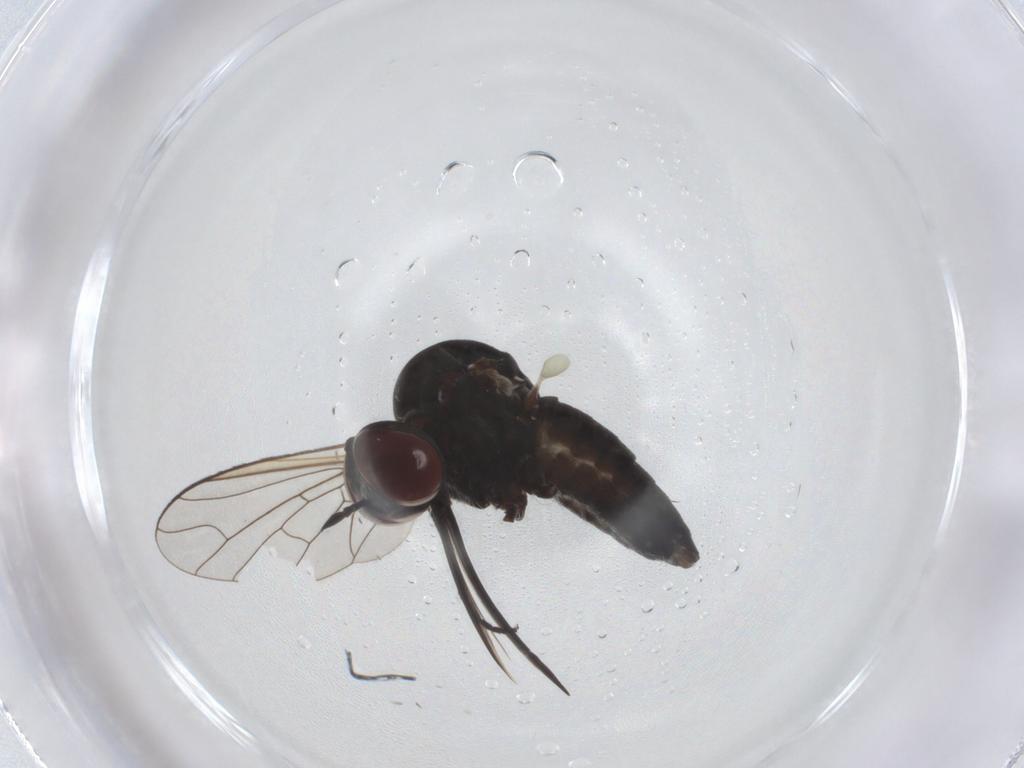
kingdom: Animalia
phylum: Arthropoda
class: Insecta
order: Diptera
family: Bombyliidae
